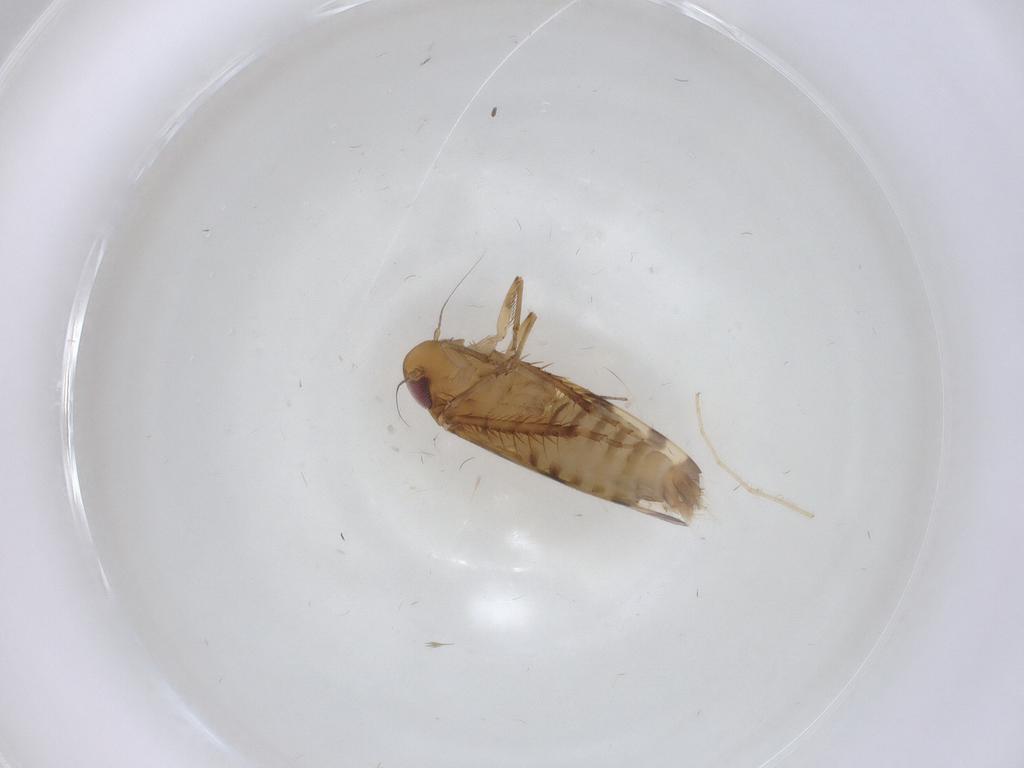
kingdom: Animalia
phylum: Arthropoda
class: Insecta
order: Hemiptera
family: Cicadellidae
